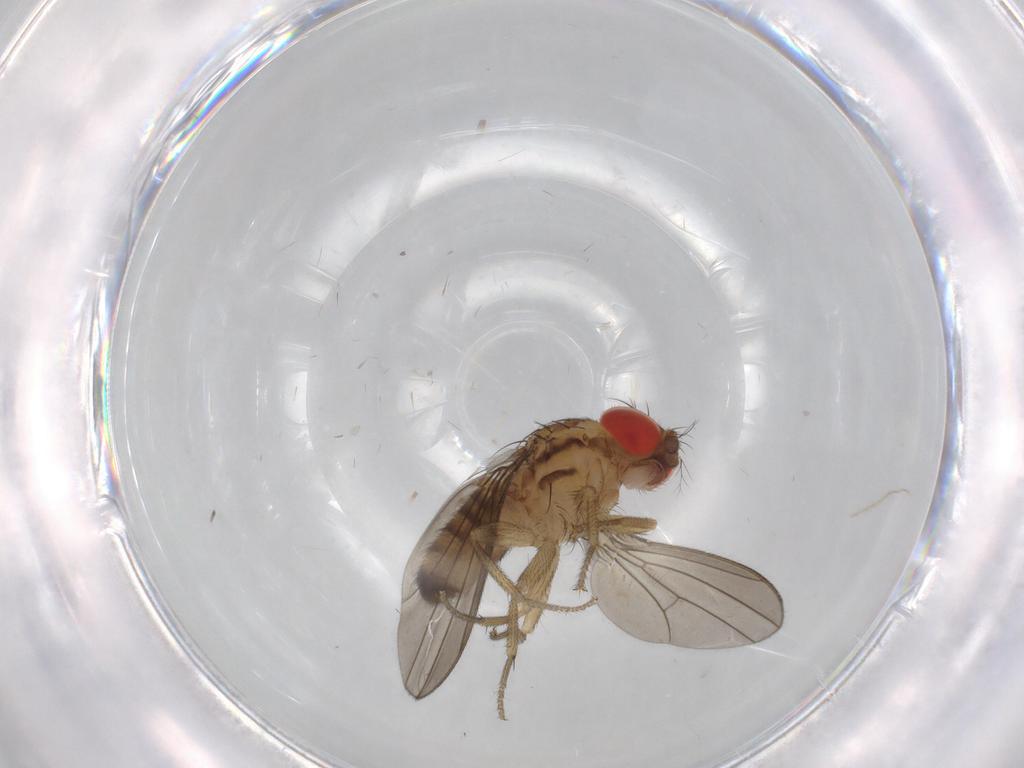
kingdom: Animalia
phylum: Arthropoda
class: Insecta
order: Diptera
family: Drosophilidae
